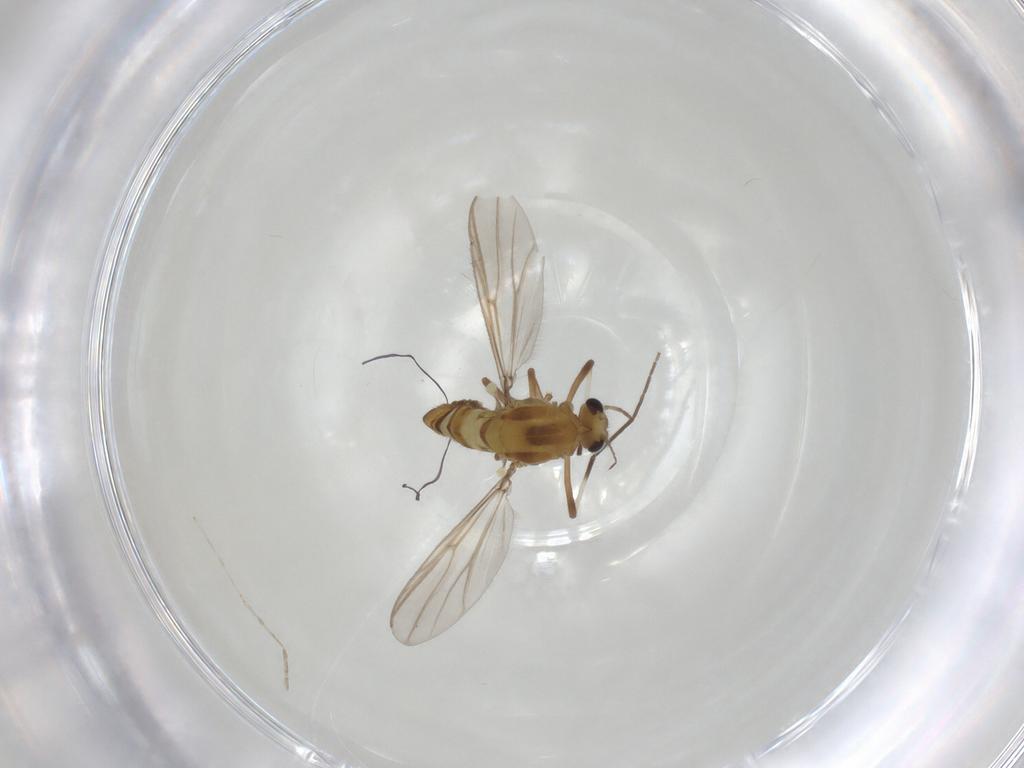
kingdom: Animalia
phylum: Arthropoda
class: Insecta
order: Diptera
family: Chironomidae
